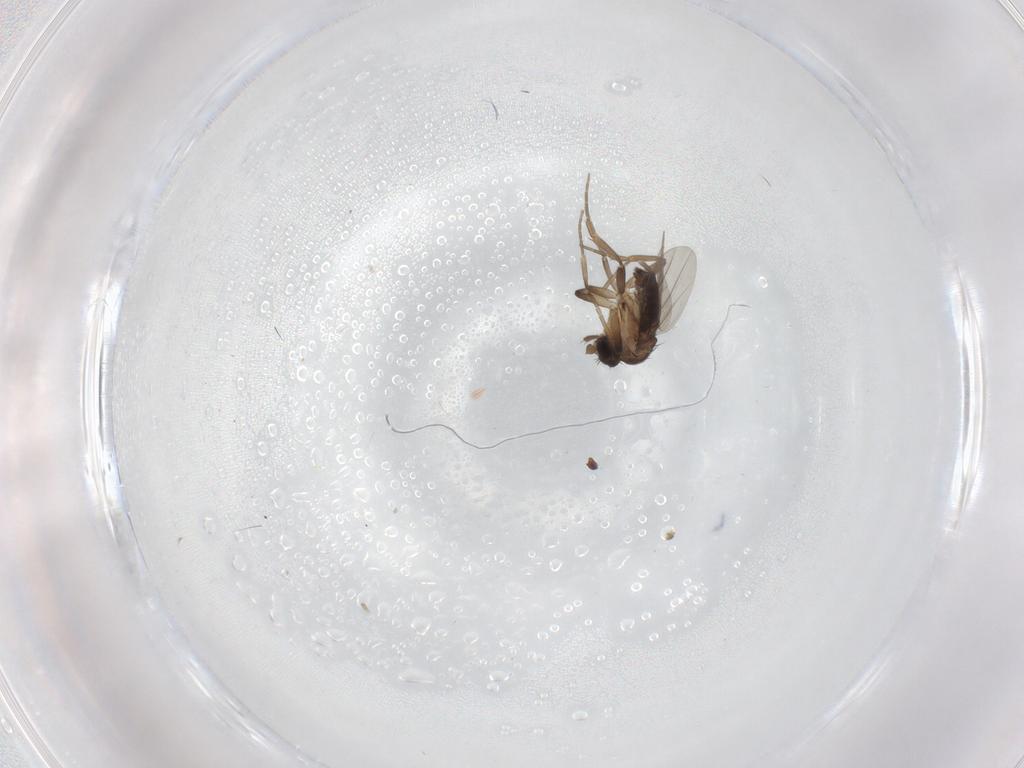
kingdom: Animalia
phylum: Arthropoda
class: Insecta
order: Diptera
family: Phoridae
